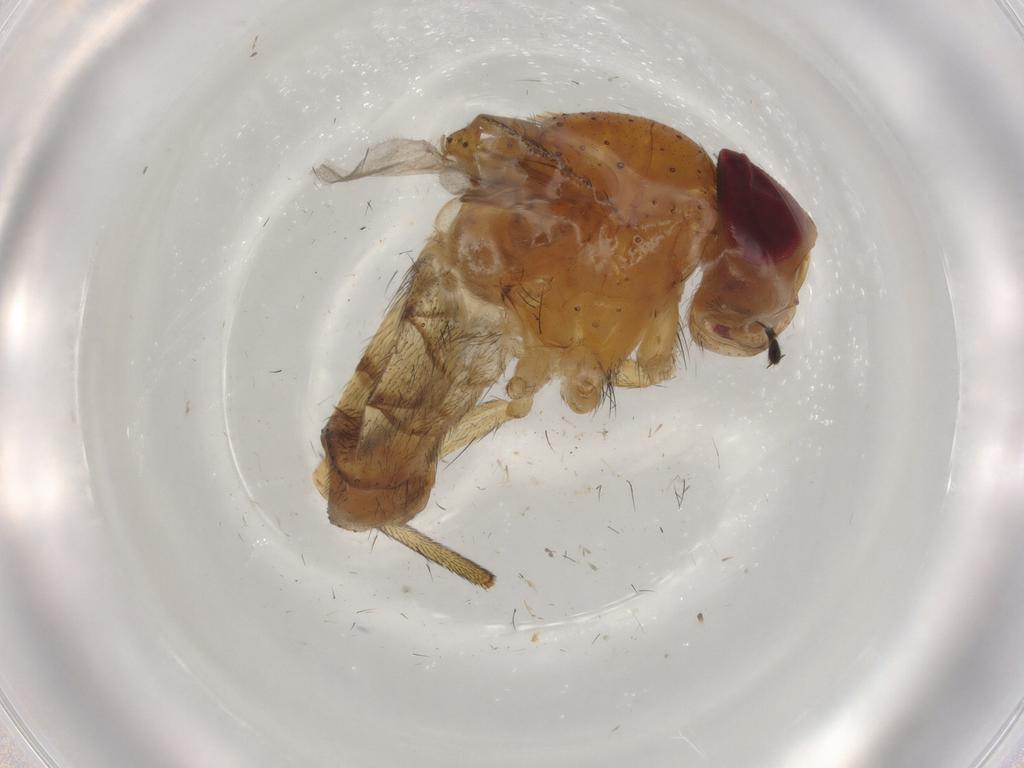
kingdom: Animalia
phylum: Arthropoda
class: Insecta
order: Diptera
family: Calliphoridae
